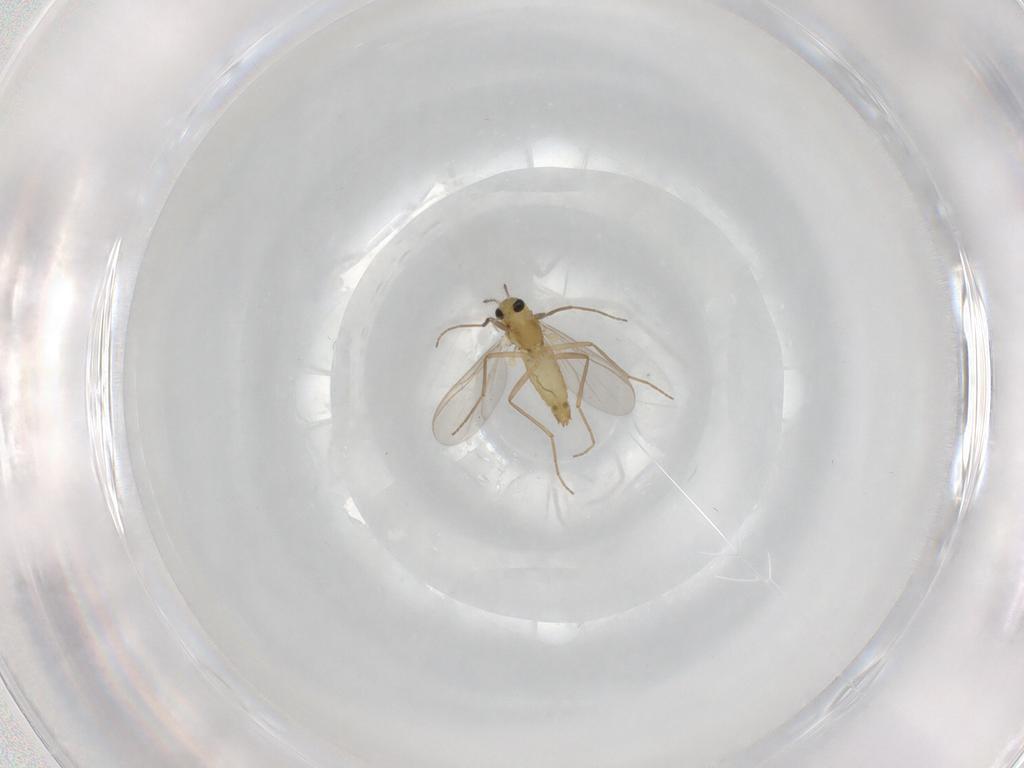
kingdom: Animalia
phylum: Arthropoda
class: Insecta
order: Diptera
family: Chironomidae
